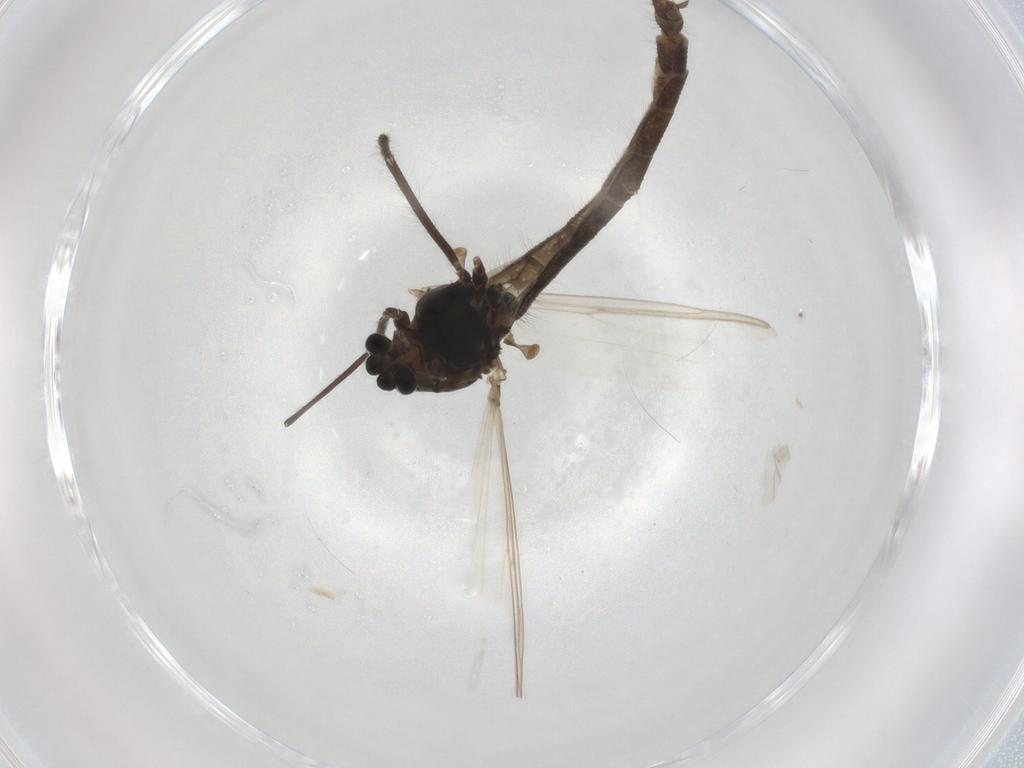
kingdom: Animalia
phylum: Arthropoda
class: Insecta
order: Diptera
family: Chironomidae
